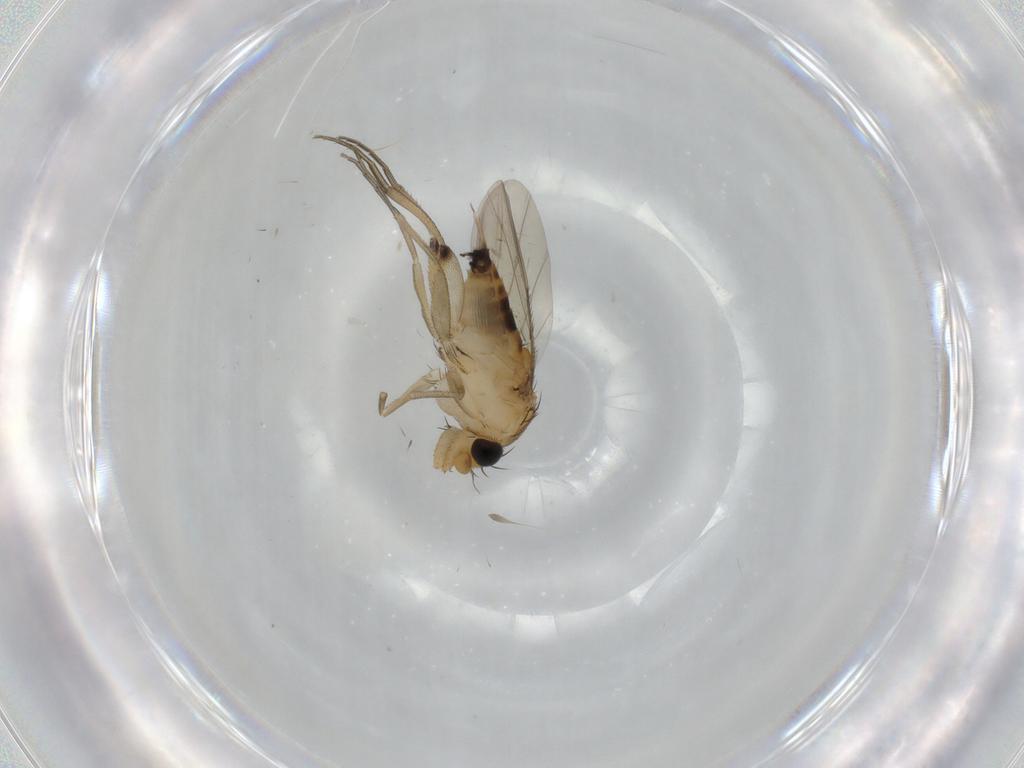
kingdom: Animalia
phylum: Arthropoda
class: Insecta
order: Diptera
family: Phoridae
